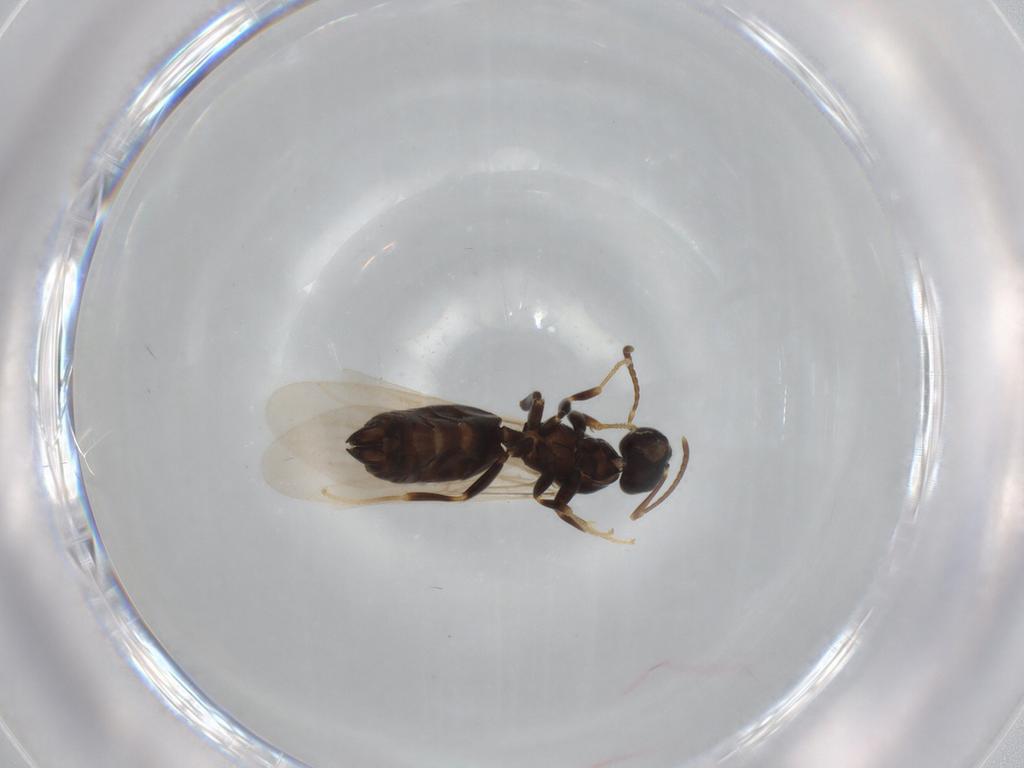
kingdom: Animalia
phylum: Arthropoda
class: Insecta
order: Hymenoptera
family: Formicidae
